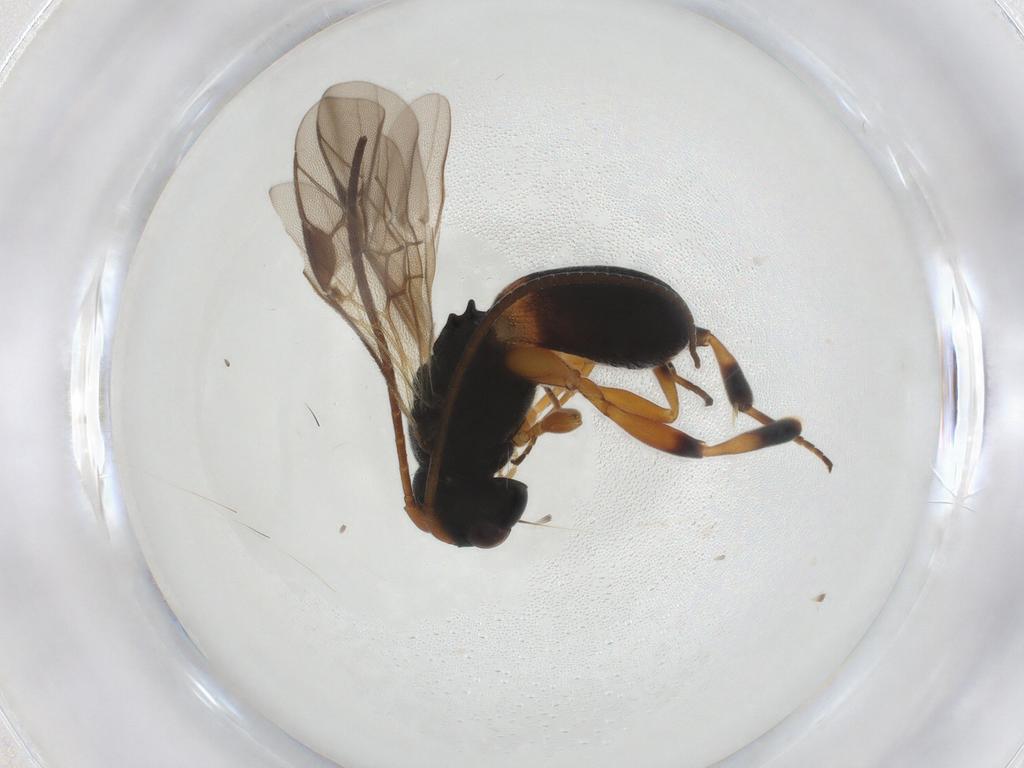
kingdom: Animalia
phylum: Arthropoda
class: Insecta
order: Hymenoptera
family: Braconidae
